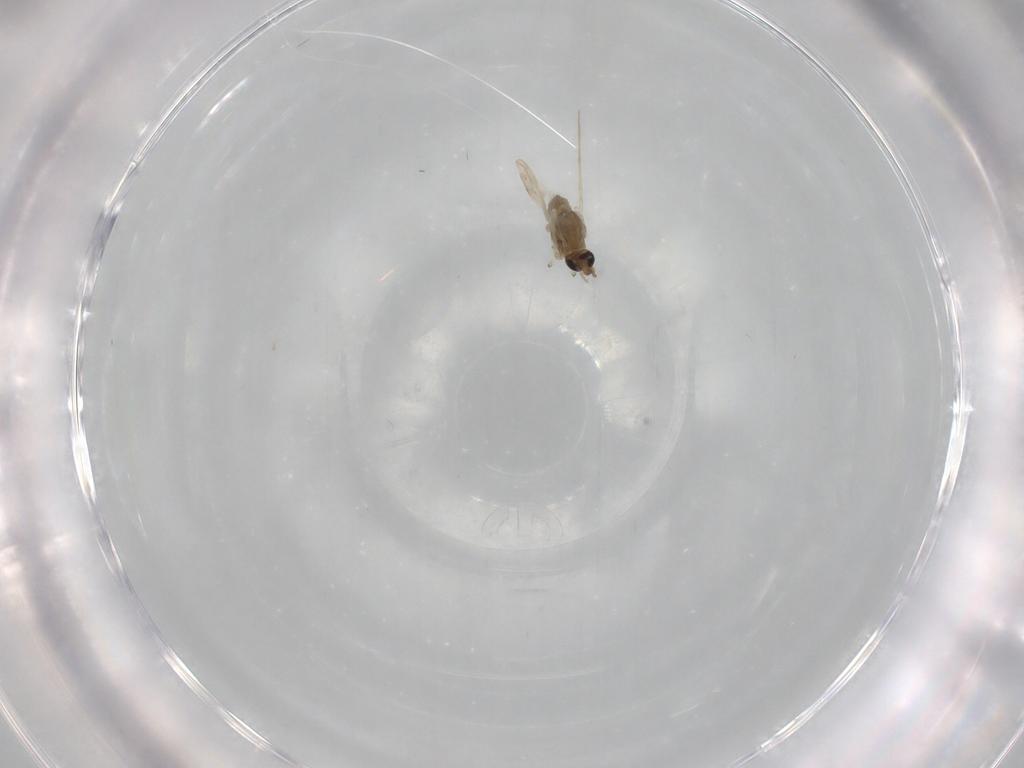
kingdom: Animalia
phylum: Arthropoda
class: Insecta
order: Diptera
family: Chironomidae
